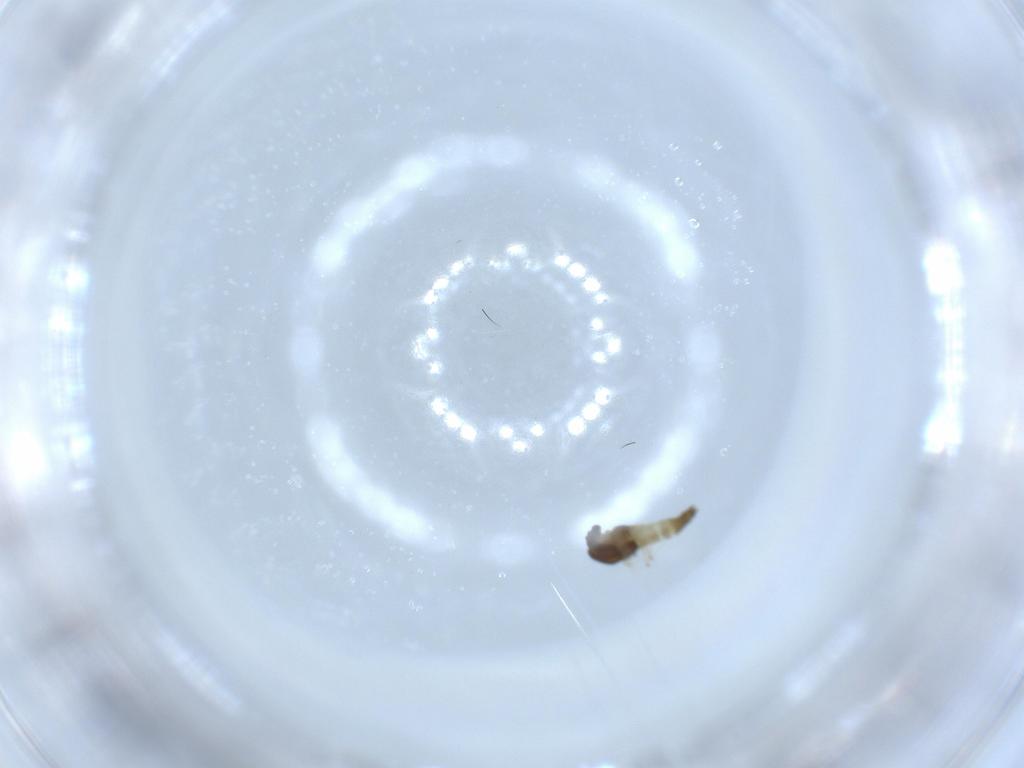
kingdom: Animalia
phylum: Arthropoda
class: Insecta
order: Diptera
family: Chironomidae
